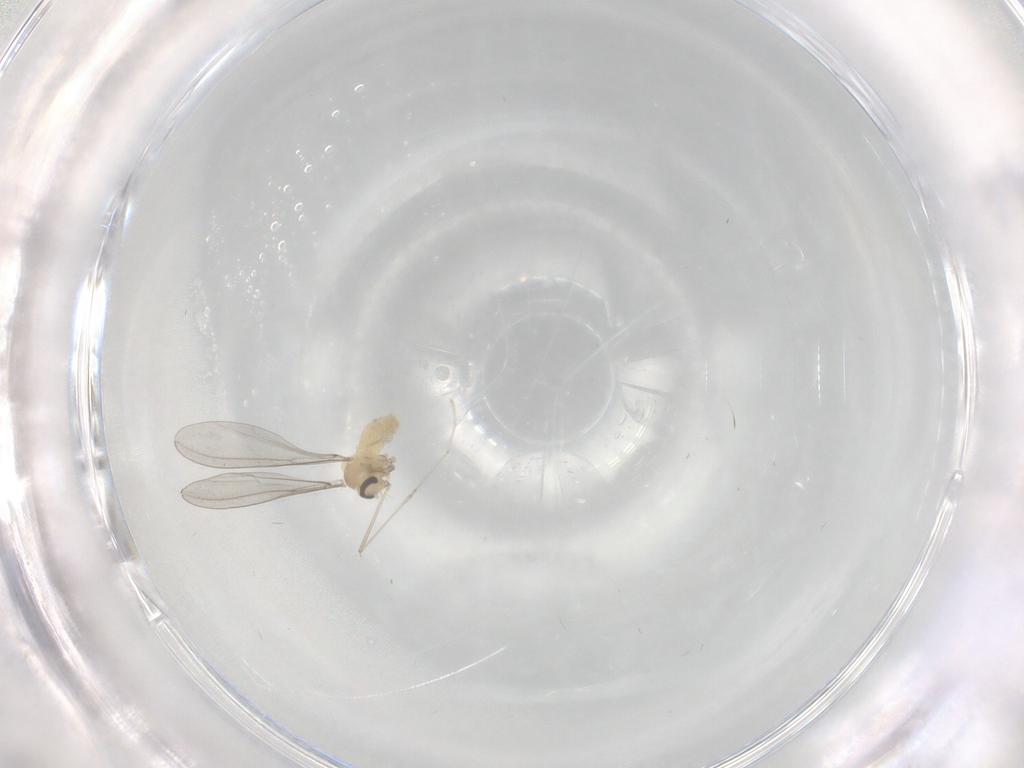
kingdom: Animalia
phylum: Arthropoda
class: Insecta
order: Diptera
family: Cecidomyiidae
